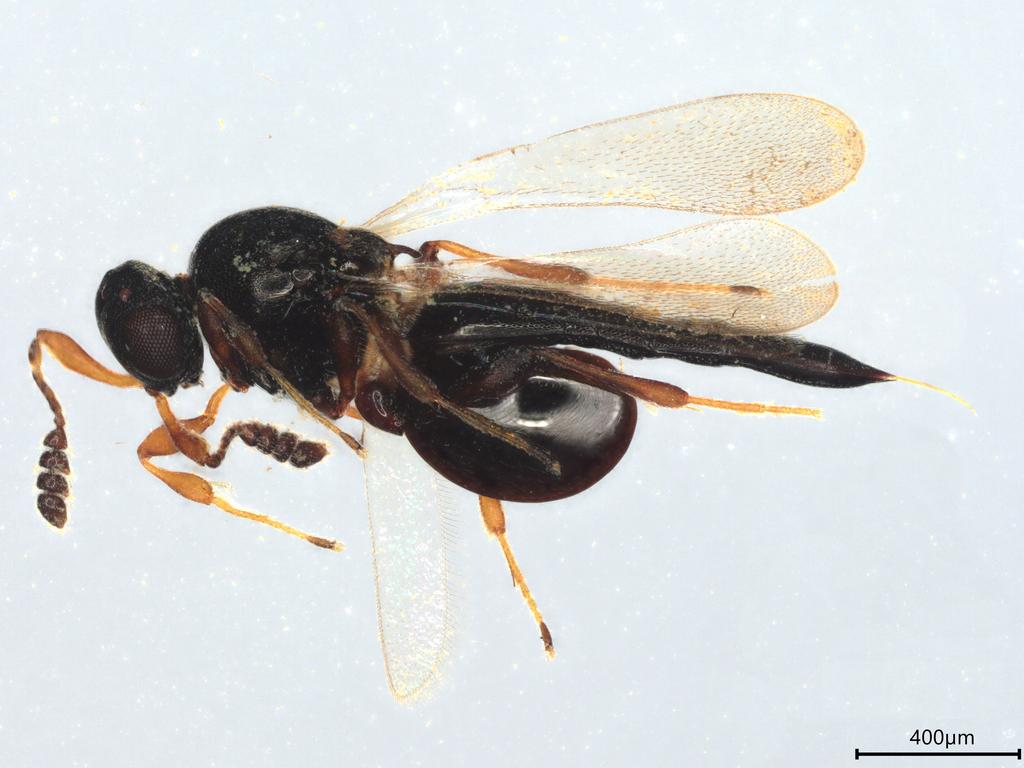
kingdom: Animalia
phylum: Arthropoda
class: Insecta
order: Hymenoptera
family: Platygastridae
